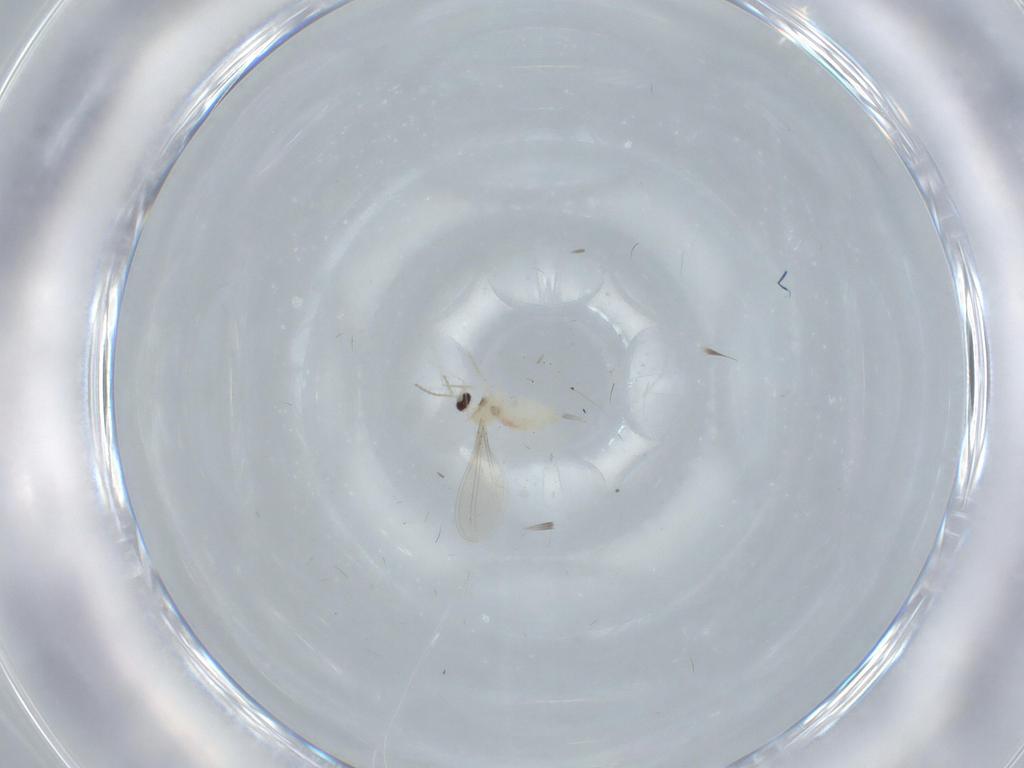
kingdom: Animalia
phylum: Arthropoda
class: Insecta
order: Diptera
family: Cecidomyiidae
